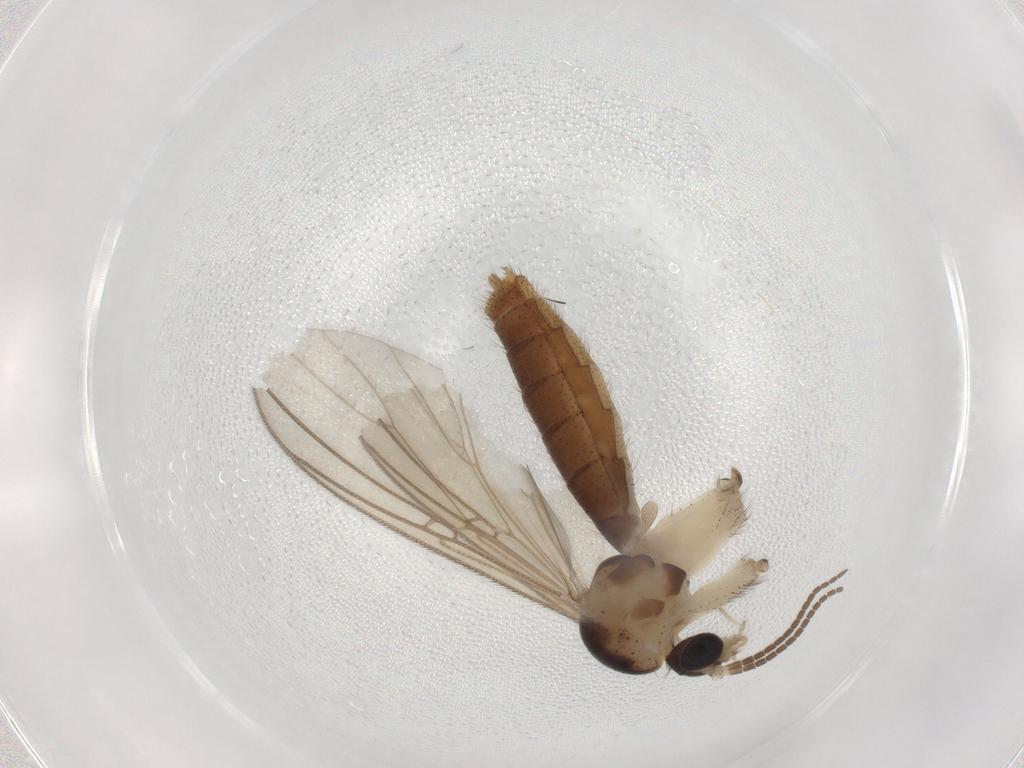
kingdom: Animalia
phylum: Arthropoda
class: Insecta
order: Diptera
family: Mycetophilidae
